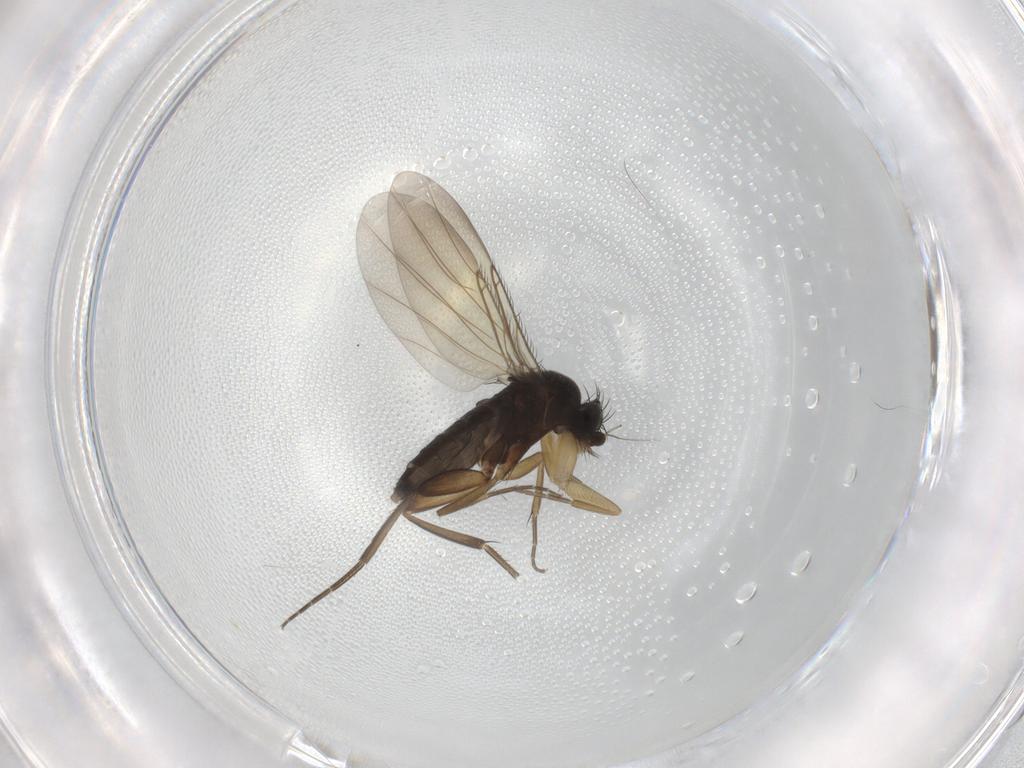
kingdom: Animalia
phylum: Arthropoda
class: Insecta
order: Diptera
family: Phoridae
